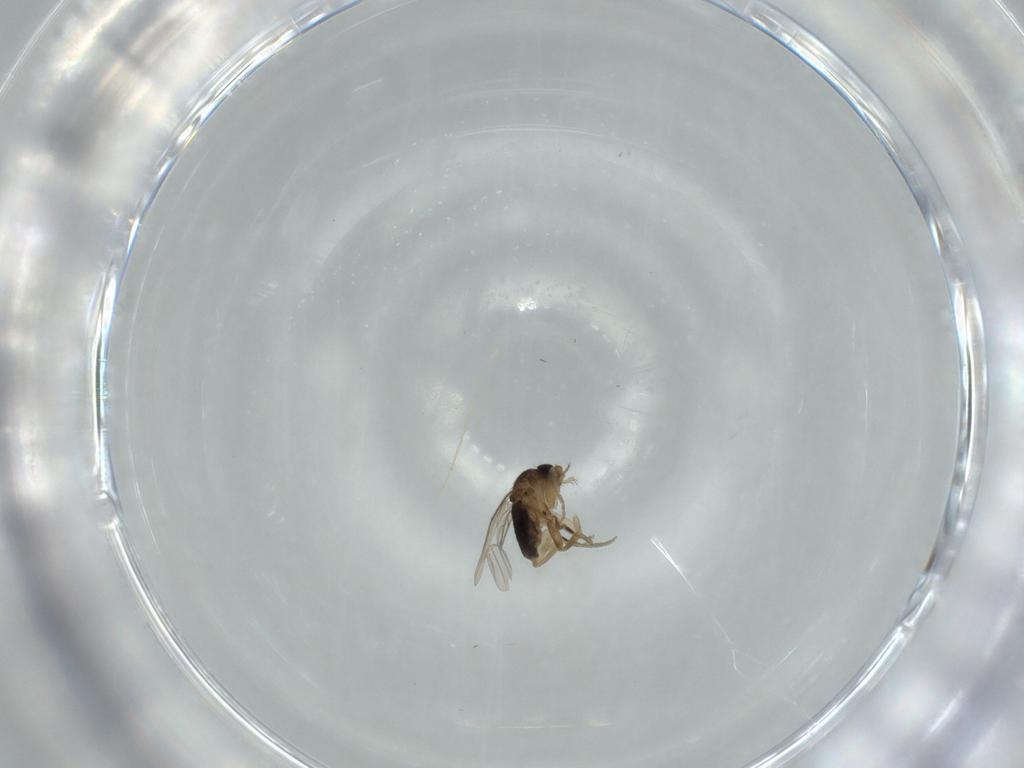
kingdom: Animalia
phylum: Arthropoda
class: Insecta
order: Diptera
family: Phoridae
